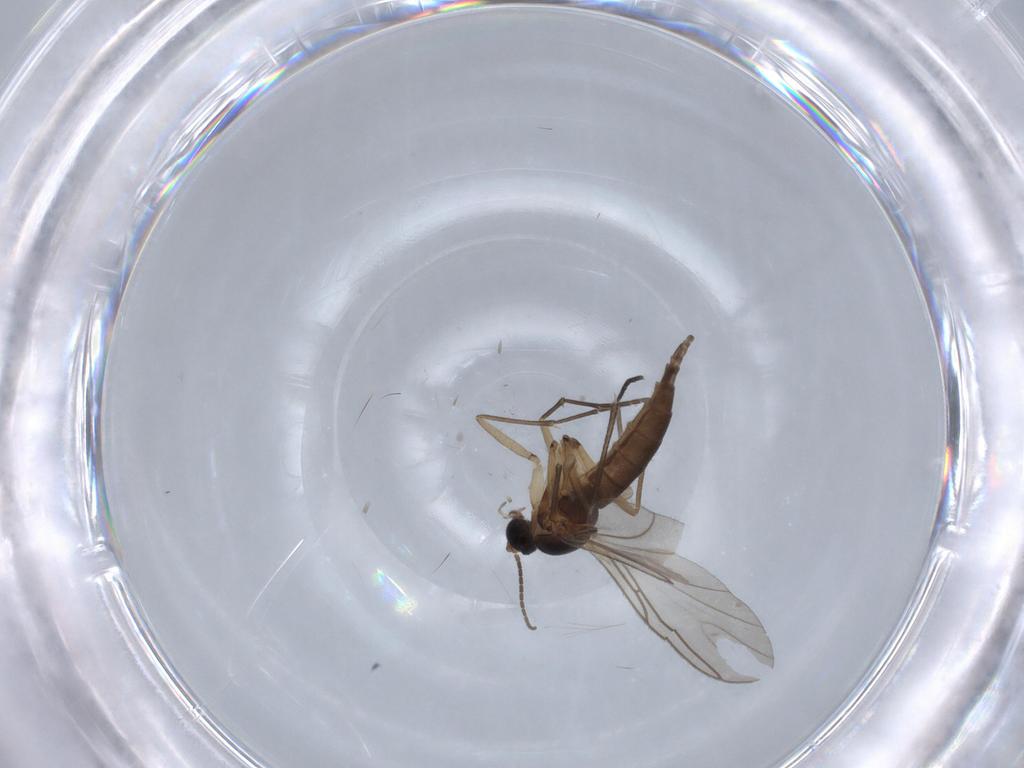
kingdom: Animalia
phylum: Arthropoda
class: Insecta
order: Diptera
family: Sciaridae
